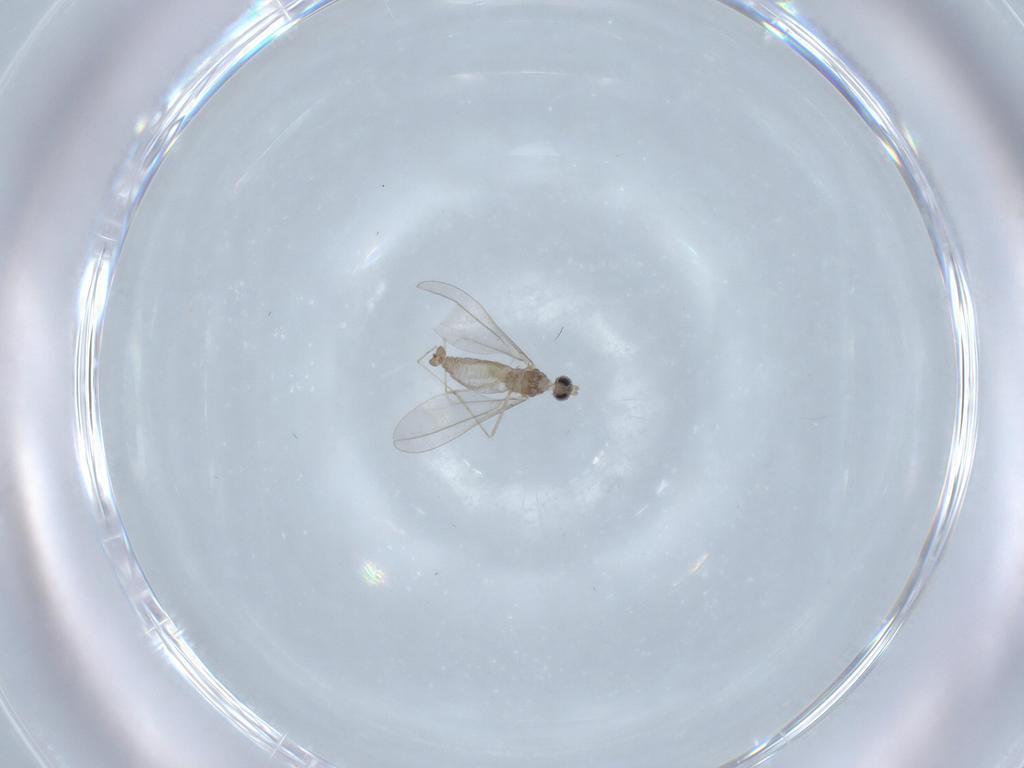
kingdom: Animalia
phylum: Arthropoda
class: Insecta
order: Diptera
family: Cecidomyiidae
